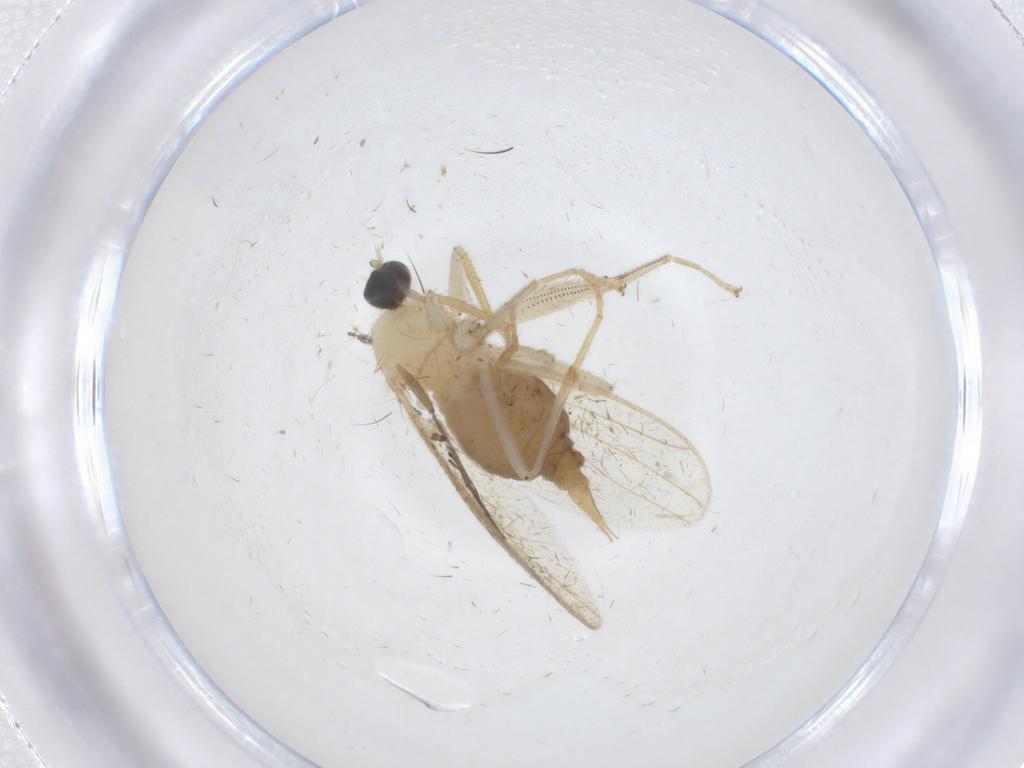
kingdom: Animalia
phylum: Arthropoda
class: Insecta
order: Diptera
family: Hybotidae
